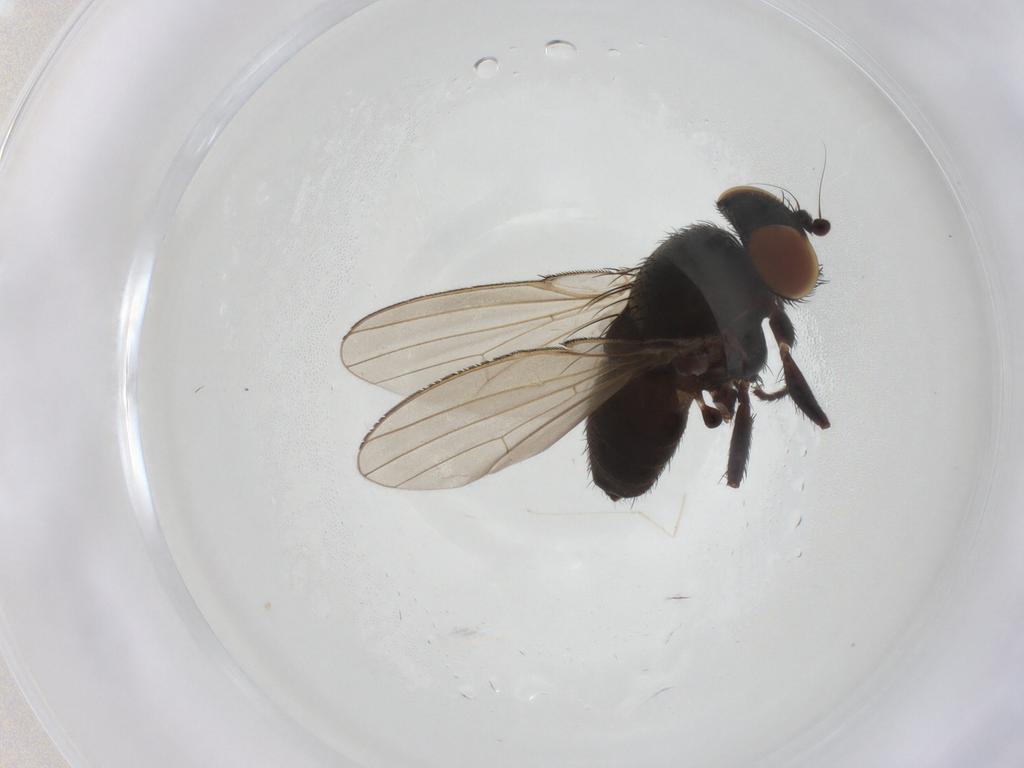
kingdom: Animalia
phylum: Arthropoda
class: Insecta
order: Diptera
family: Milichiidae
